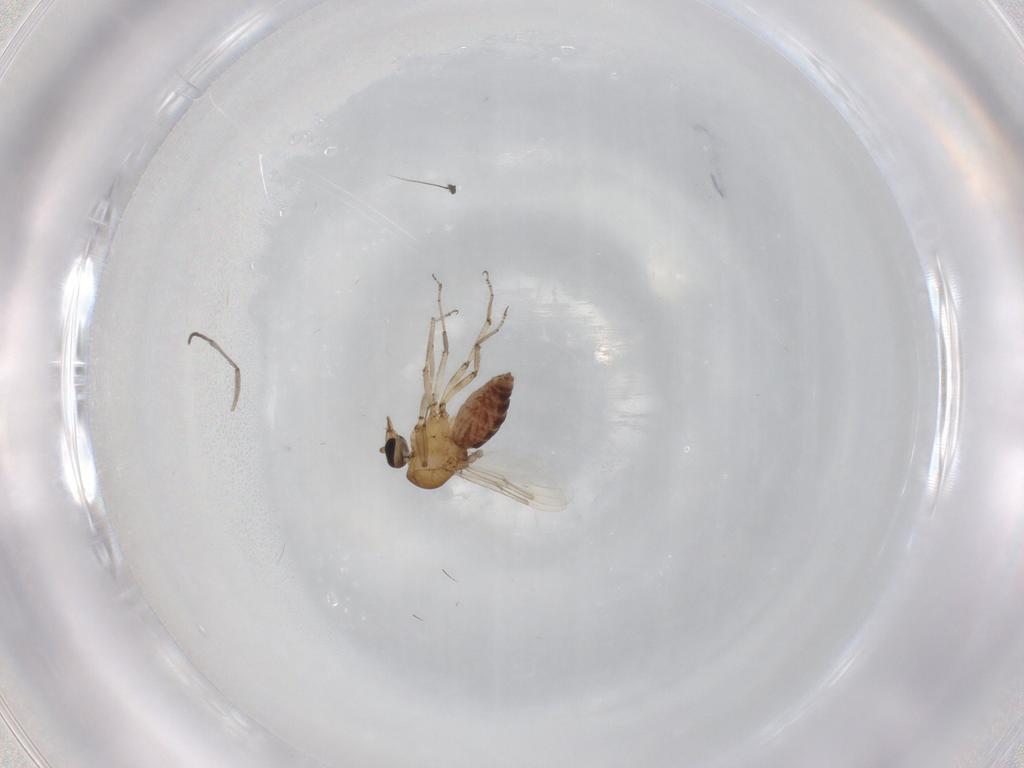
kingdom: Animalia
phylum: Arthropoda
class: Insecta
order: Diptera
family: Ceratopogonidae
